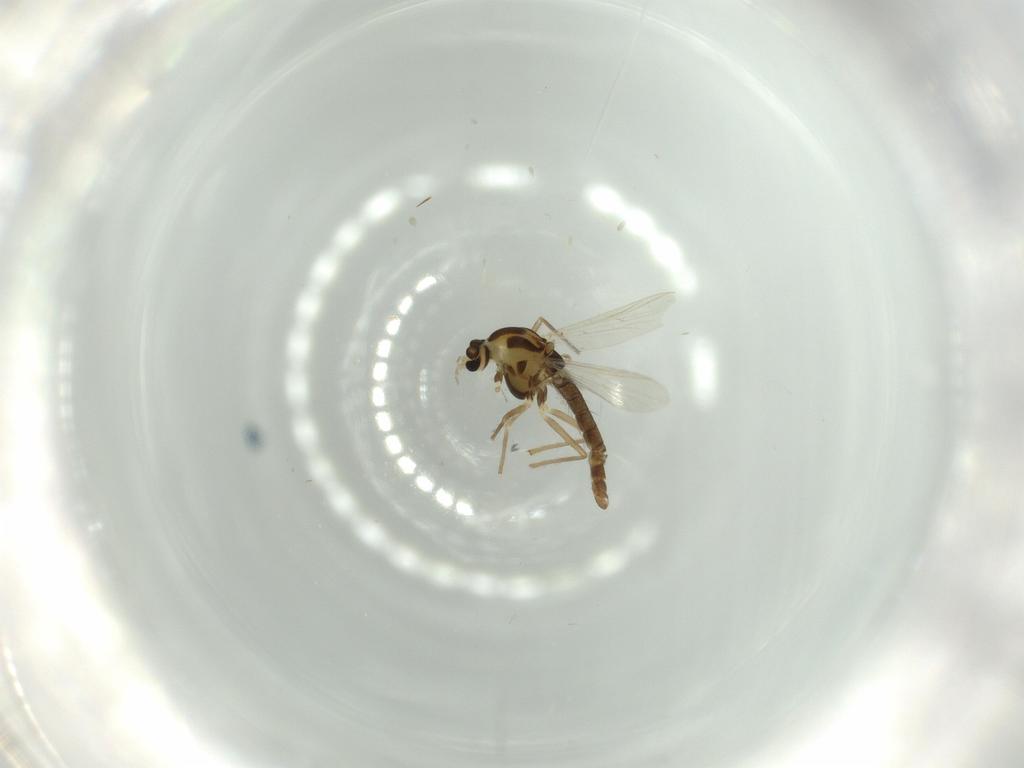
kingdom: Animalia
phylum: Arthropoda
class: Insecta
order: Diptera
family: Chironomidae
